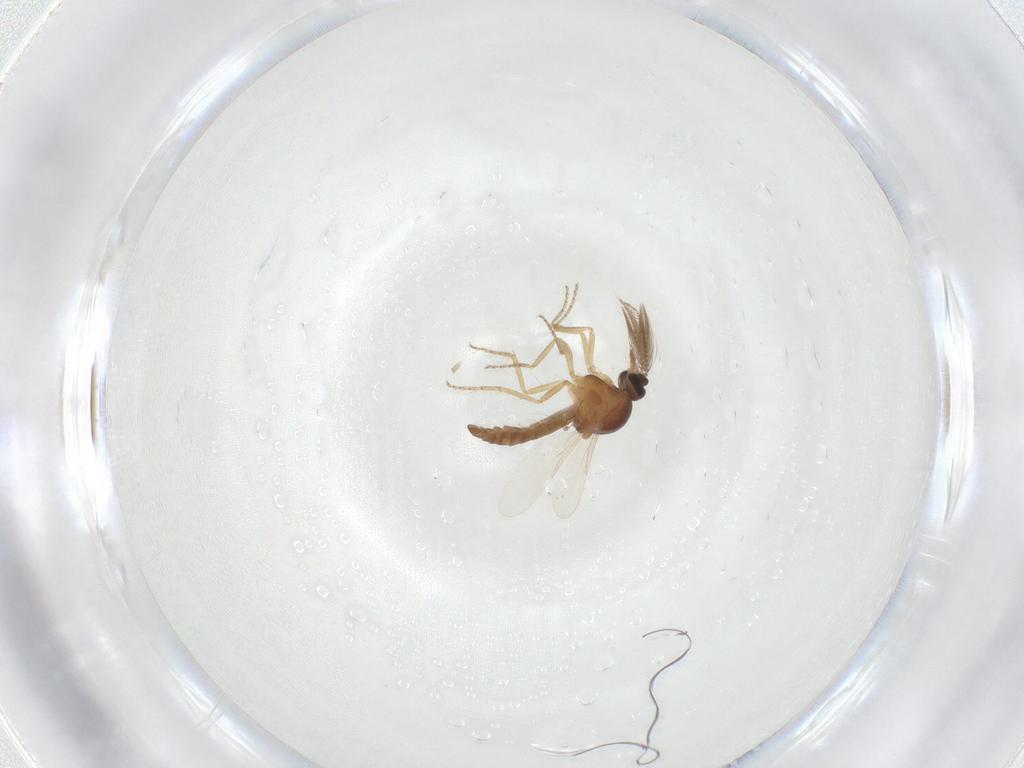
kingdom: Animalia
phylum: Arthropoda
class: Insecta
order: Diptera
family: Ceratopogonidae
